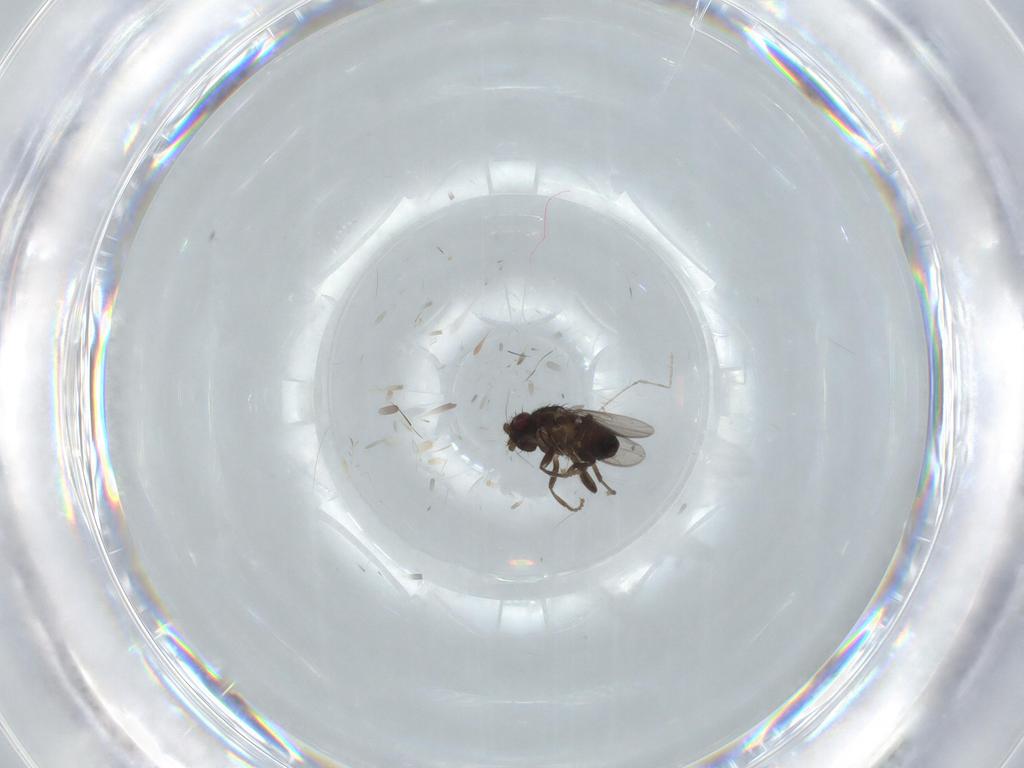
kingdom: Animalia
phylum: Arthropoda
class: Insecta
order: Diptera
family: Sphaeroceridae
